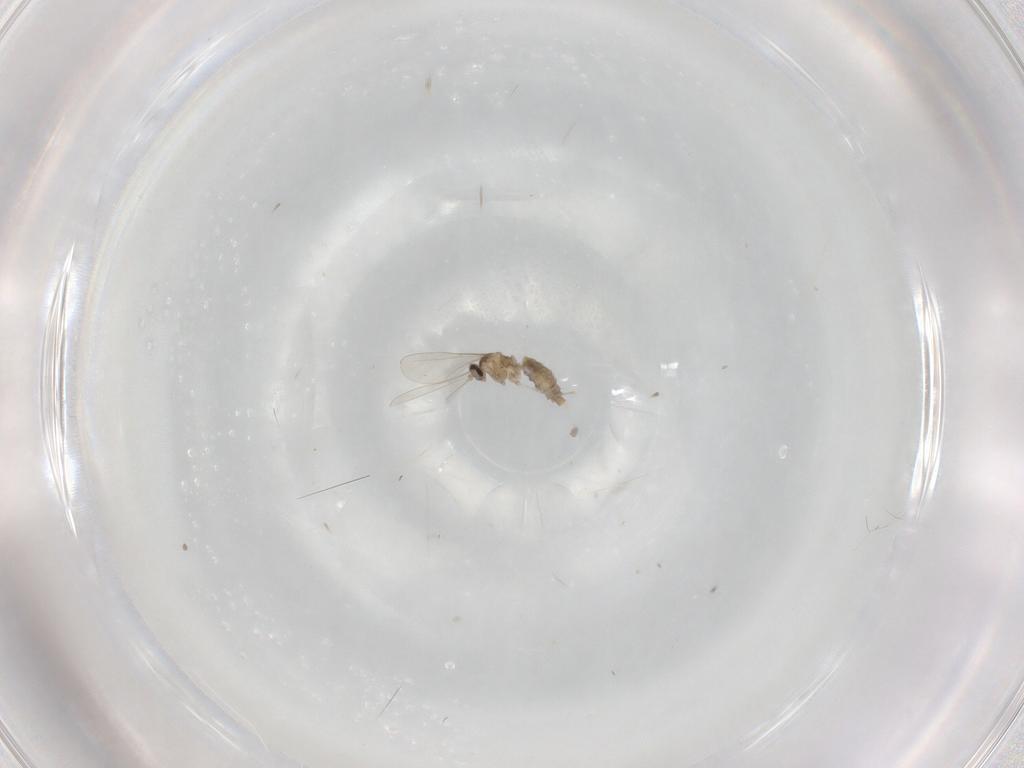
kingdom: Animalia
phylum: Arthropoda
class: Insecta
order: Diptera
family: Cecidomyiidae
